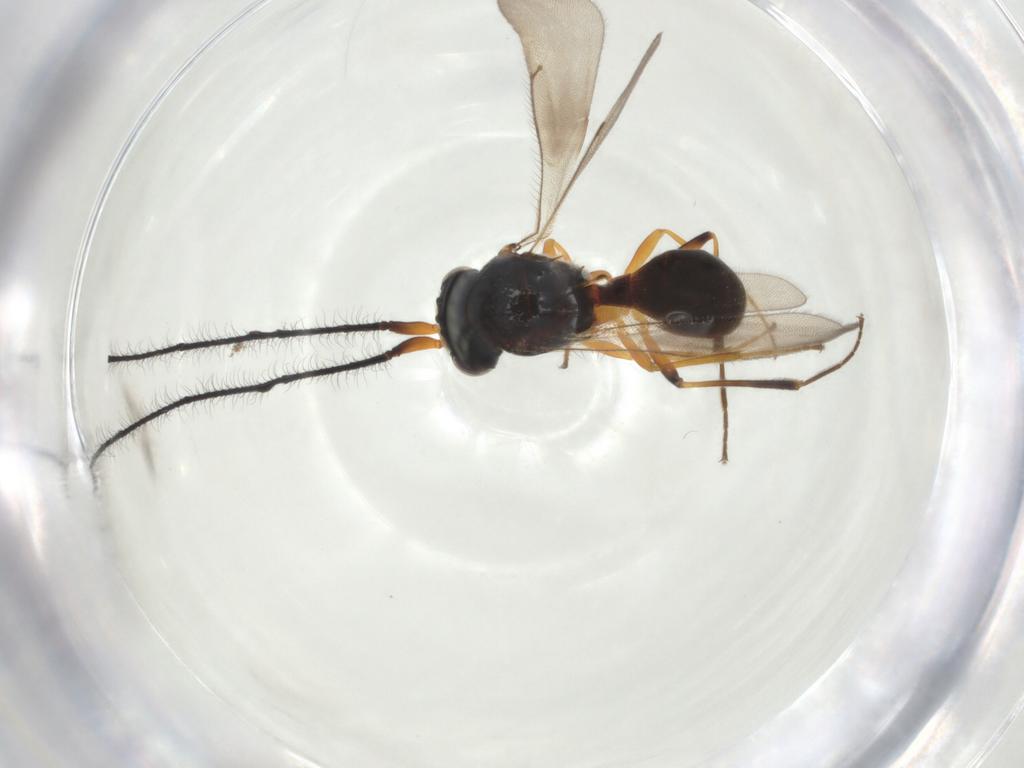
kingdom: Animalia
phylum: Arthropoda
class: Insecta
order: Hymenoptera
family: Scelionidae
